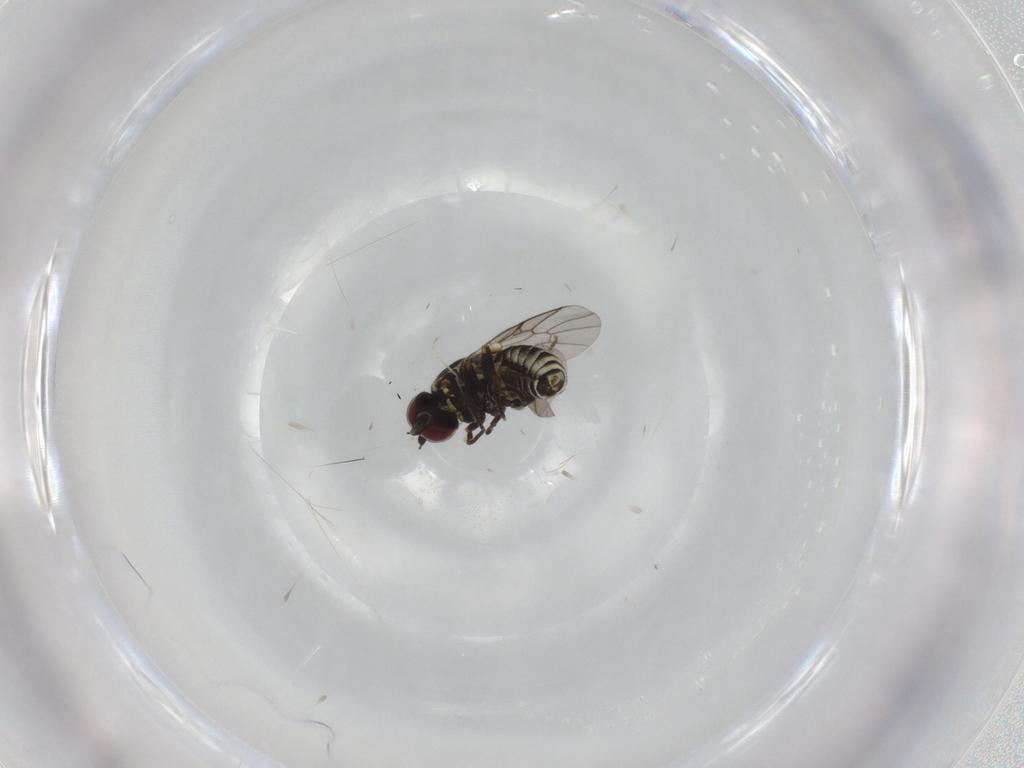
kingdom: Animalia
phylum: Arthropoda
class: Insecta
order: Diptera
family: Bombyliidae
